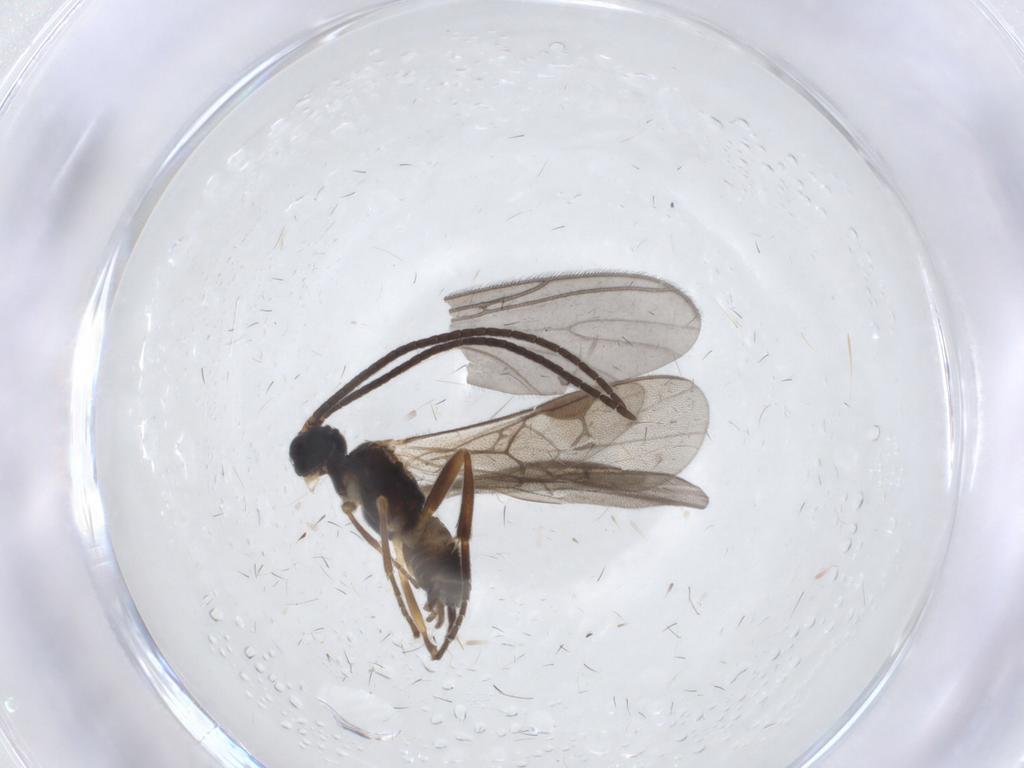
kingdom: Animalia
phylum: Arthropoda
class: Insecta
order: Hymenoptera
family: Braconidae
